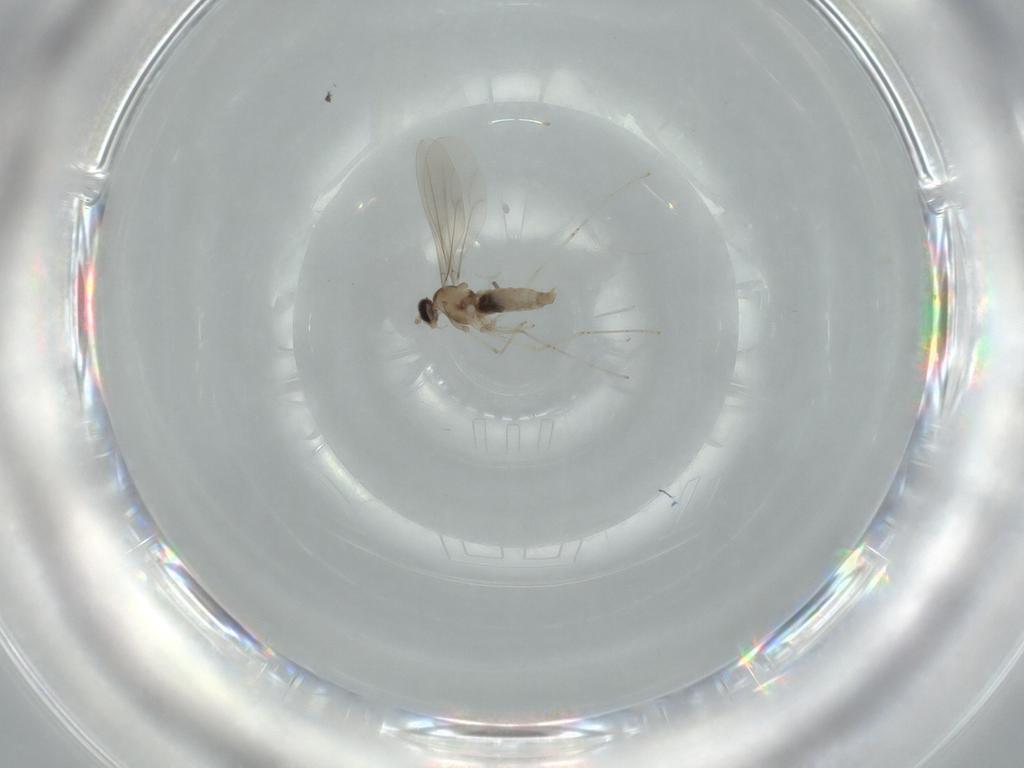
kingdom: Animalia
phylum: Arthropoda
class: Insecta
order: Diptera
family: Cecidomyiidae
